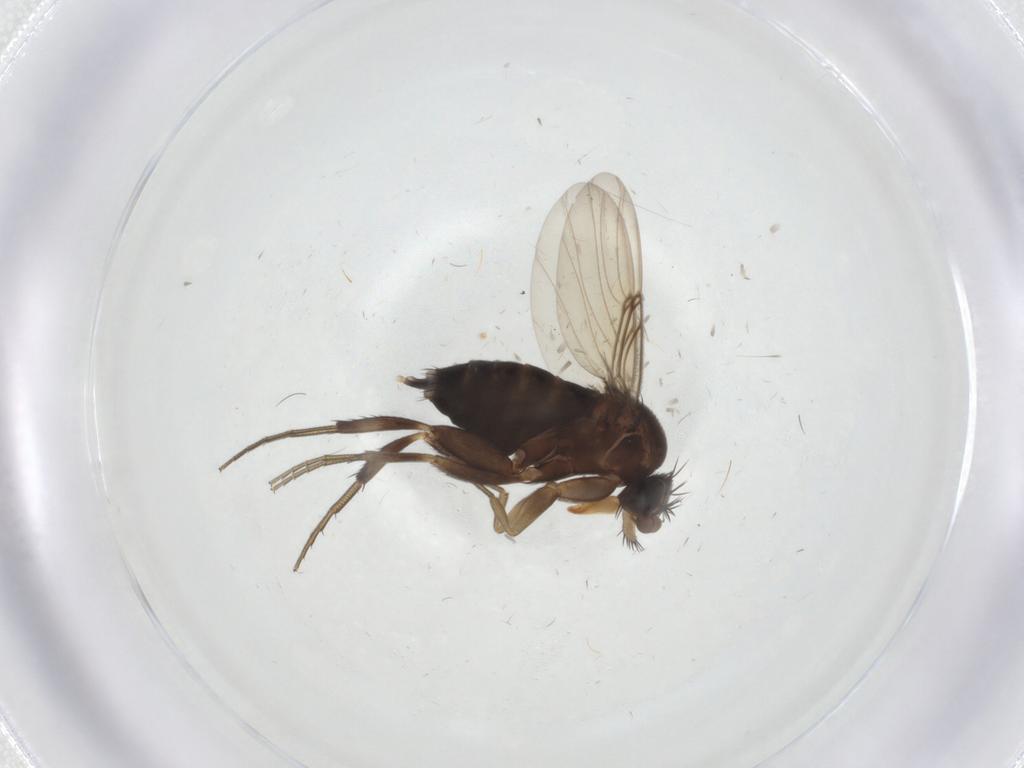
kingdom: Animalia
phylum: Arthropoda
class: Insecta
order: Diptera
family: Phoridae
